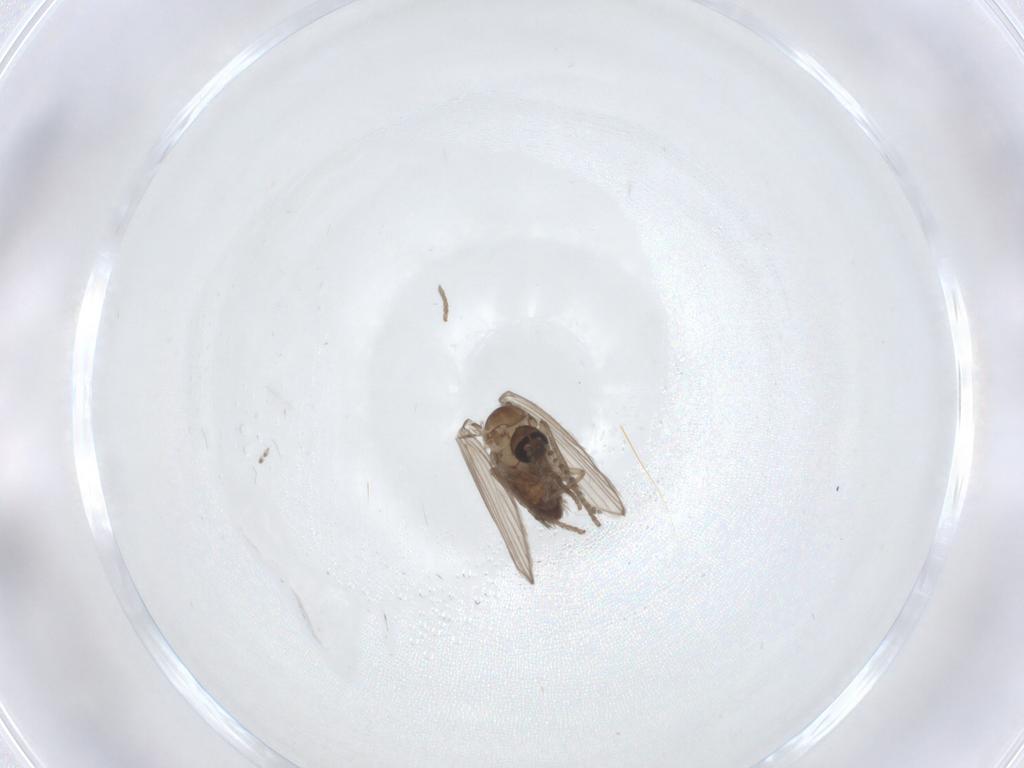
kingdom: Animalia
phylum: Arthropoda
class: Insecta
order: Diptera
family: Psychodidae
